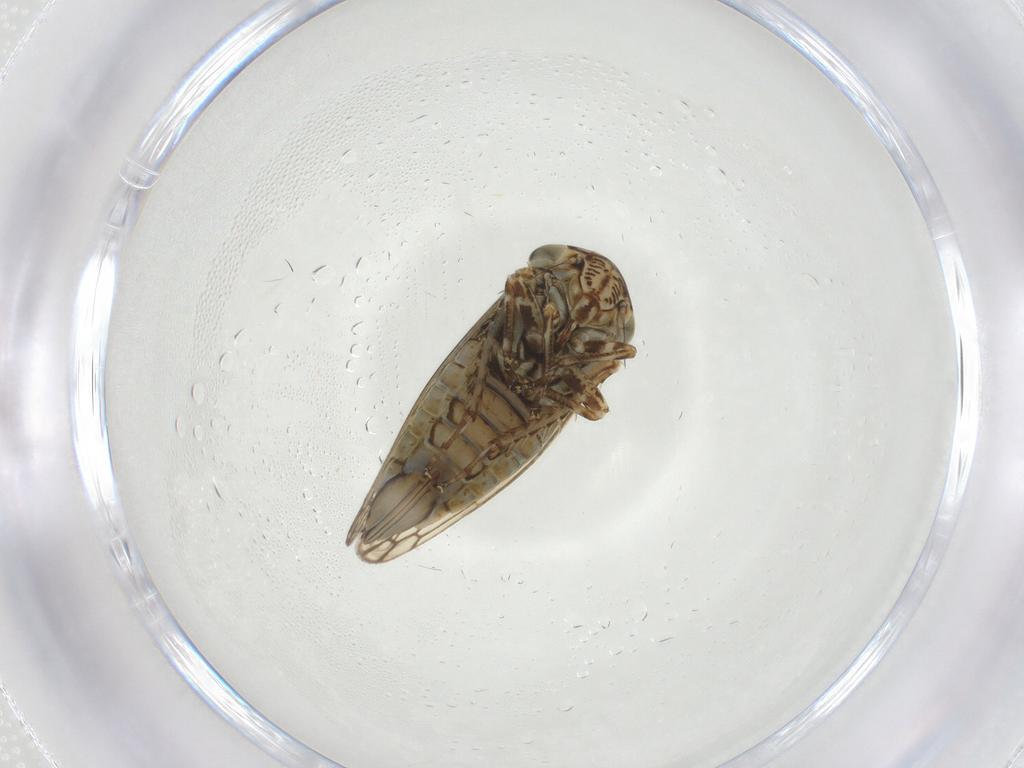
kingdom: Animalia
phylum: Arthropoda
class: Insecta
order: Hemiptera
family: Cicadellidae
